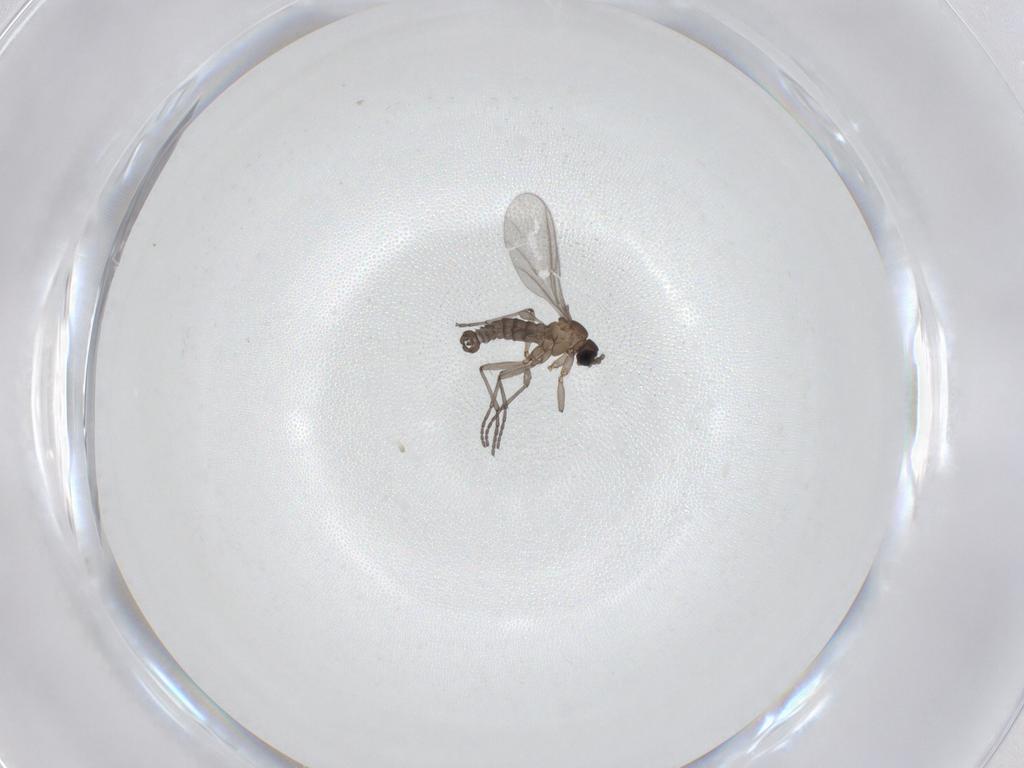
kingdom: Animalia
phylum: Arthropoda
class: Insecta
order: Diptera
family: Sciaridae
